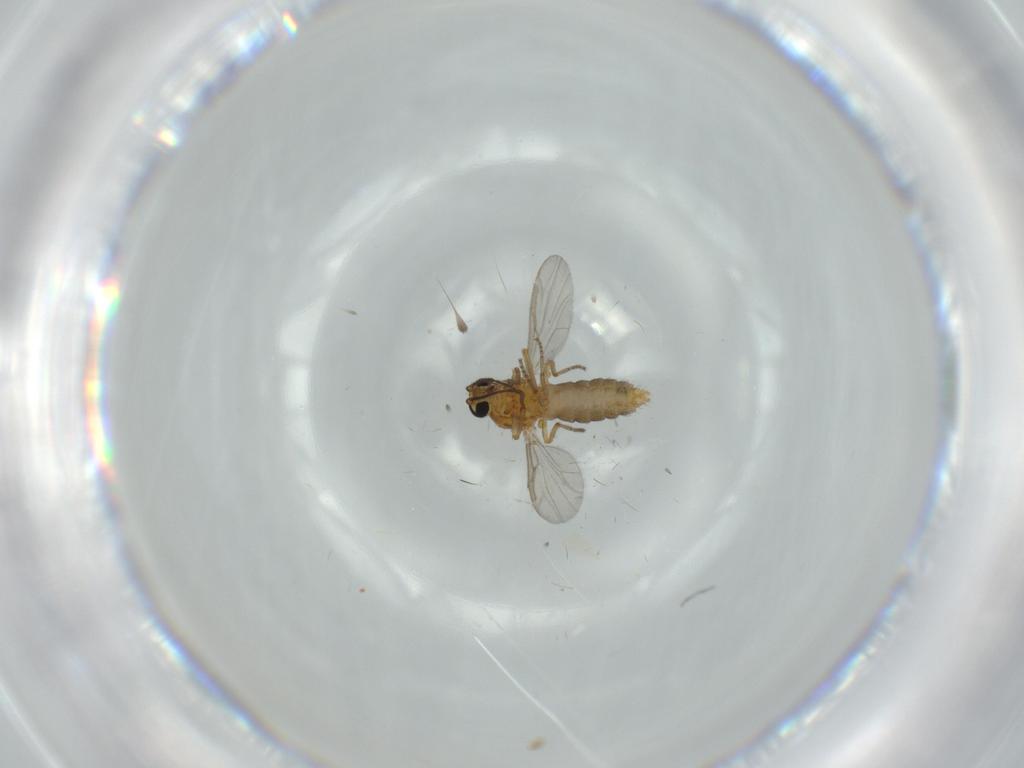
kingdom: Animalia
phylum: Arthropoda
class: Insecta
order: Diptera
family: Ceratopogonidae
